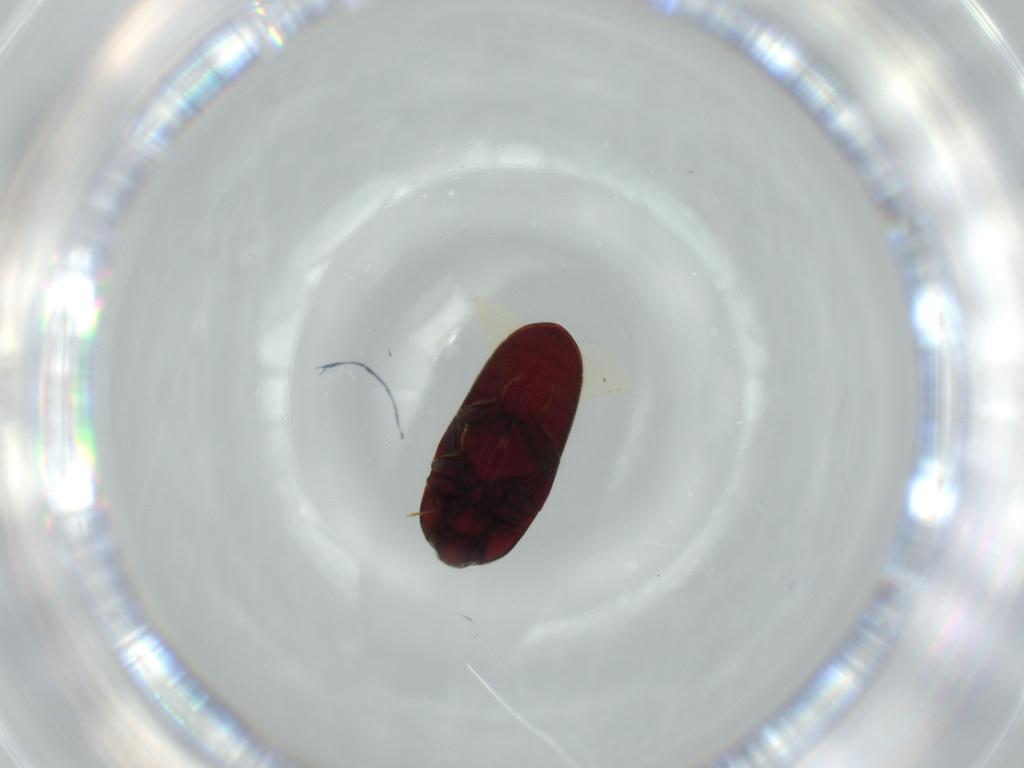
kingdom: Animalia
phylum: Arthropoda
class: Insecta
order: Coleoptera
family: Throscidae
